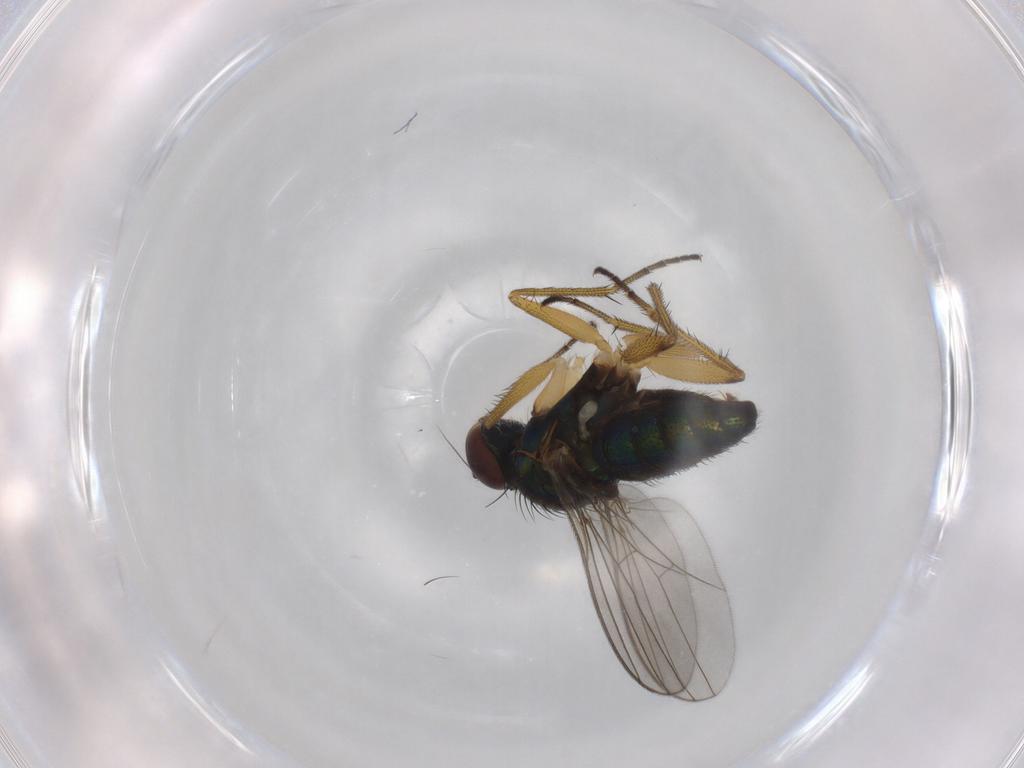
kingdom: Animalia
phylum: Arthropoda
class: Insecta
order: Diptera
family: Dolichopodidae
